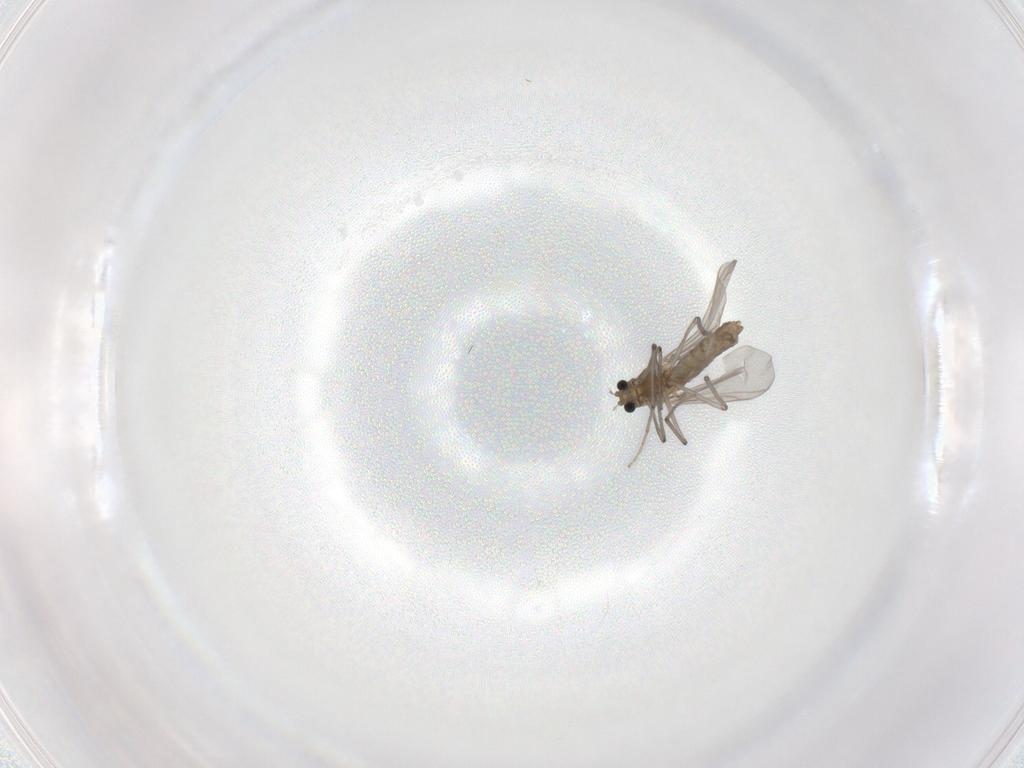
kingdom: Animalia
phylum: Arthropoda
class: Insecta
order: Diptera
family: Chironomidae
